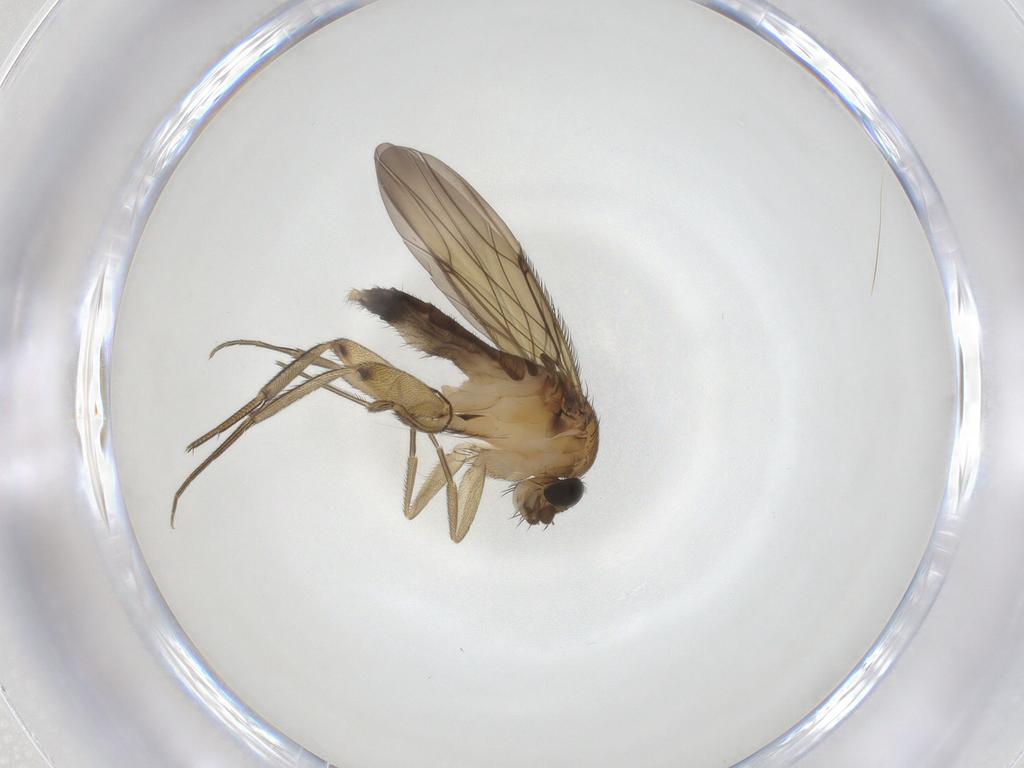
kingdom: Animalia
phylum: Arthropoda
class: Insecta
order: Diptera
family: Phoridae
